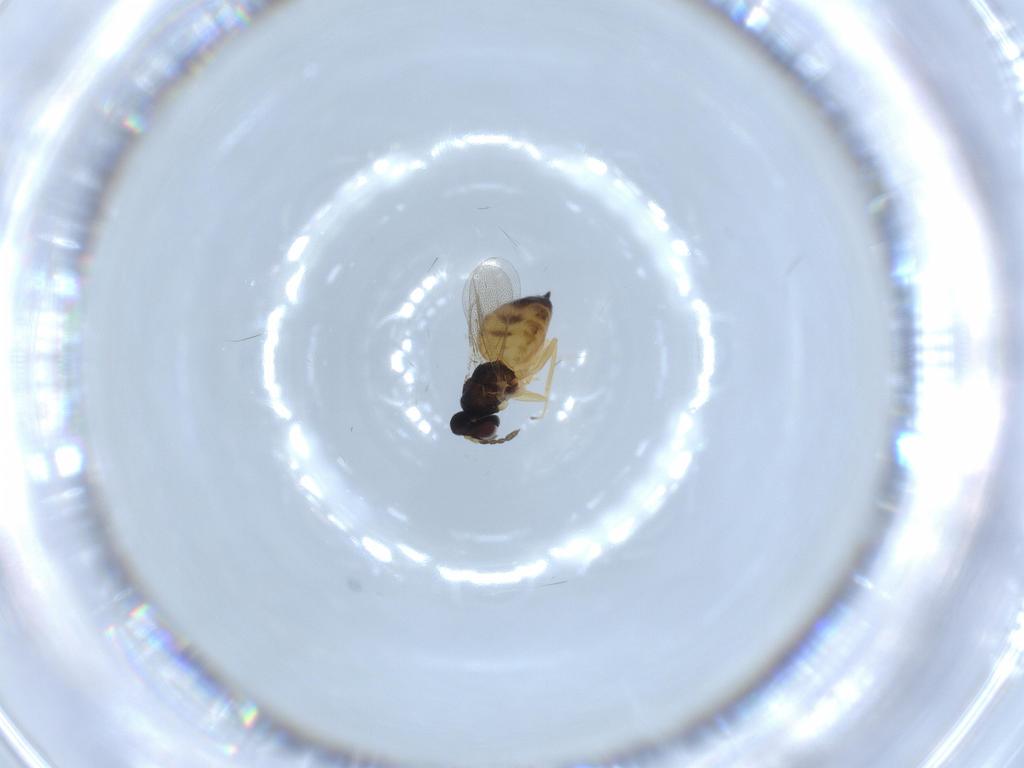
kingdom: Animalia
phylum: Arthropoda
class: Insecta
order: Hymenoptera
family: Eulophidae
